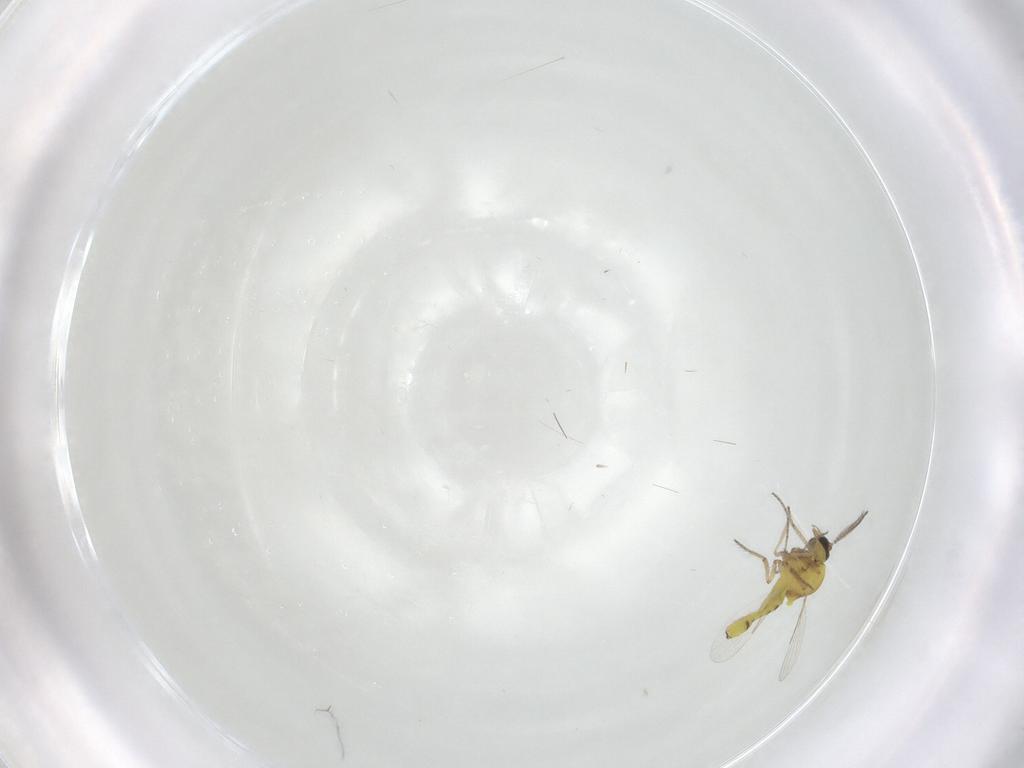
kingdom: Animalia
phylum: Arthropoda
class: Insecta
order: Diptera
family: Ceratopogonidae
